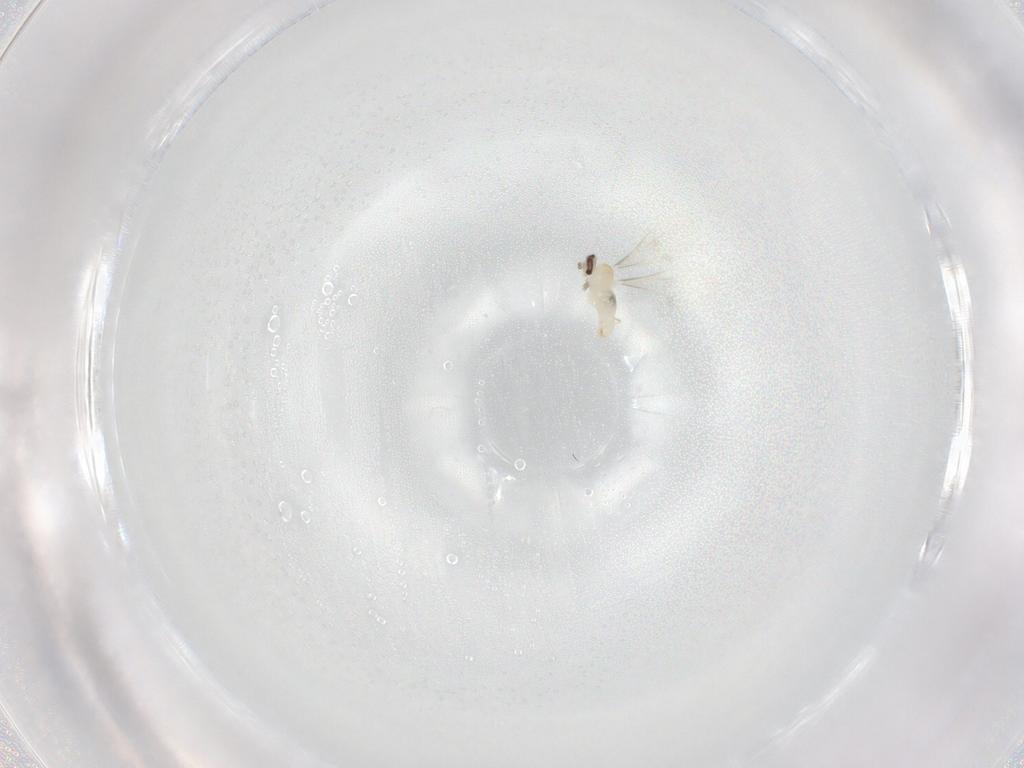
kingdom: Animalia
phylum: Arthropoda
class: Insecta
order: Diptera
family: Cecidomyiidae
